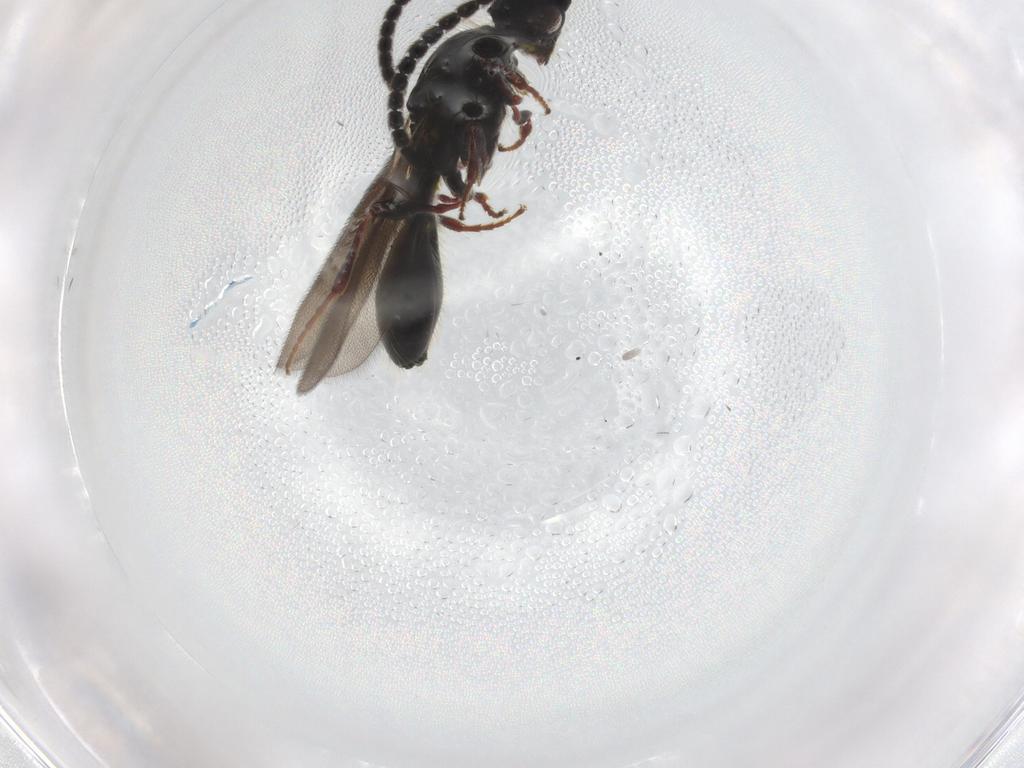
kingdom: Animalia
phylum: Arthropoda
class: Insecta
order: Hymenoptera
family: Diapriidae
